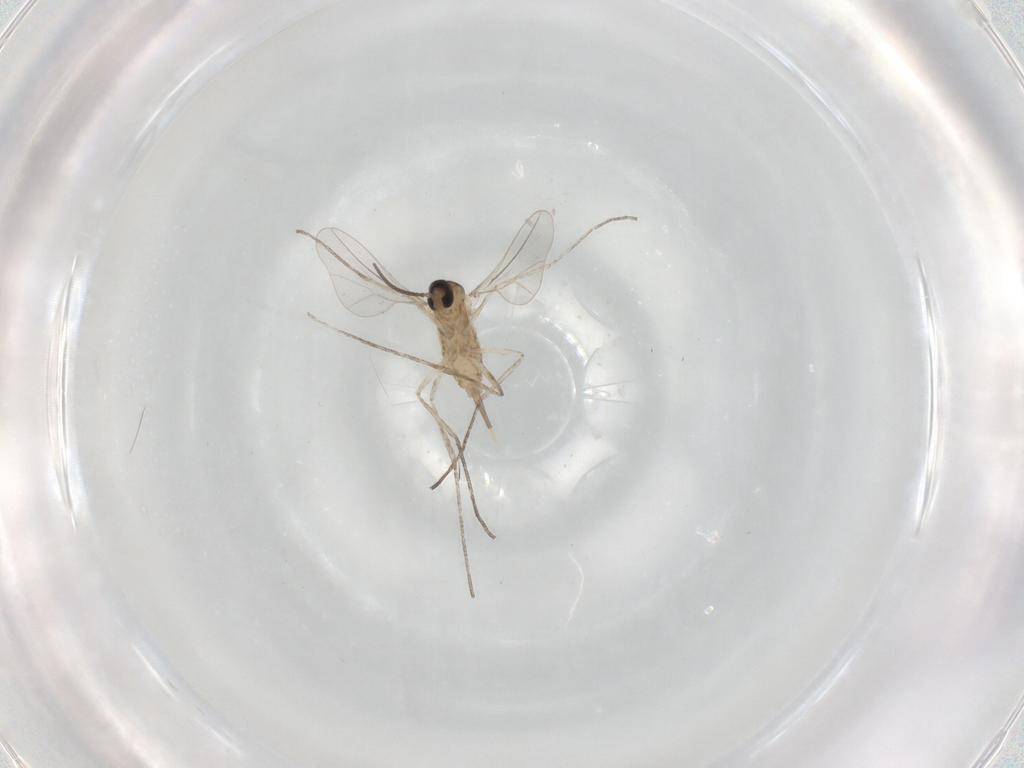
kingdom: Animalia
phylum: Arthropoda
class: Insecta
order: Diptera
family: Cecidomyiidae
